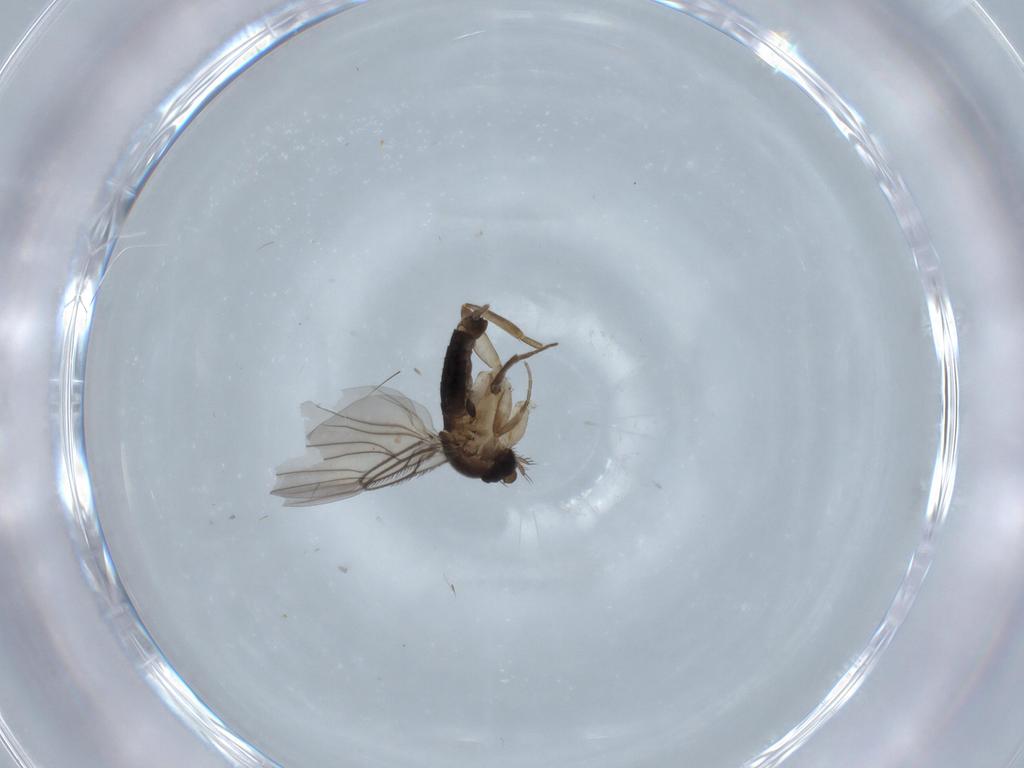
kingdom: Animalia
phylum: Arthropoda
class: Insecta
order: Diptera
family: Phoridae
